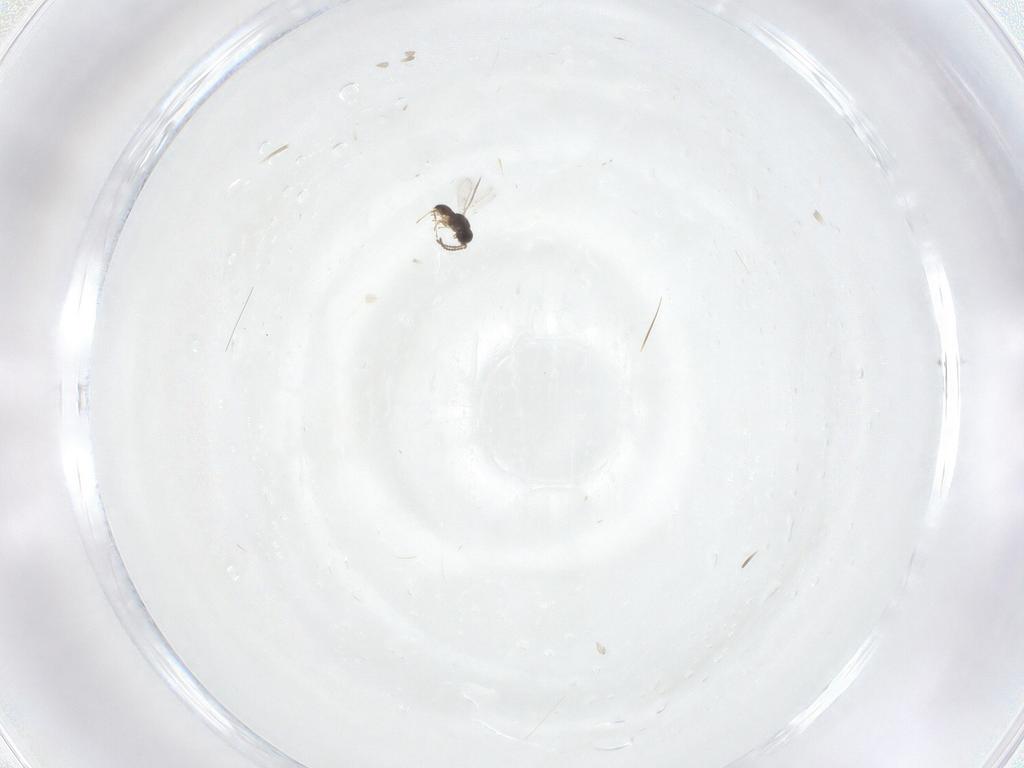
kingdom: Animalia
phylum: Arthropoda
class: Insecta
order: Hymenoptera
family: Scelionidae
